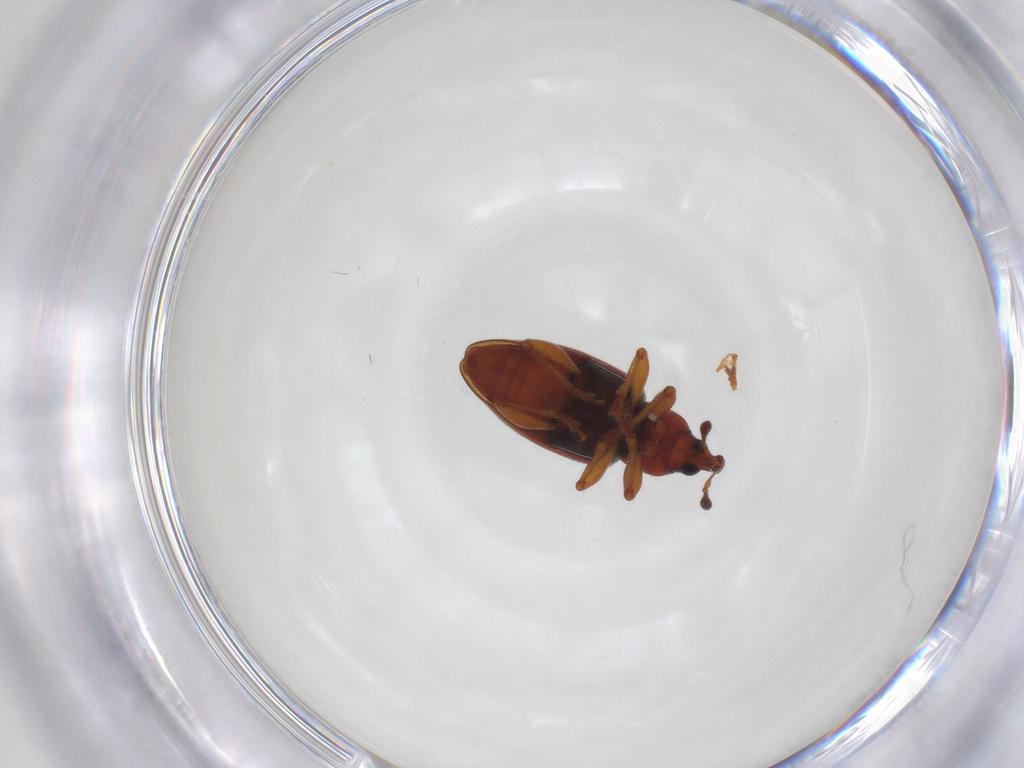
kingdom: Animalia
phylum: Arthropoda
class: Insecta
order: Coleoptera
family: Curculionidae
